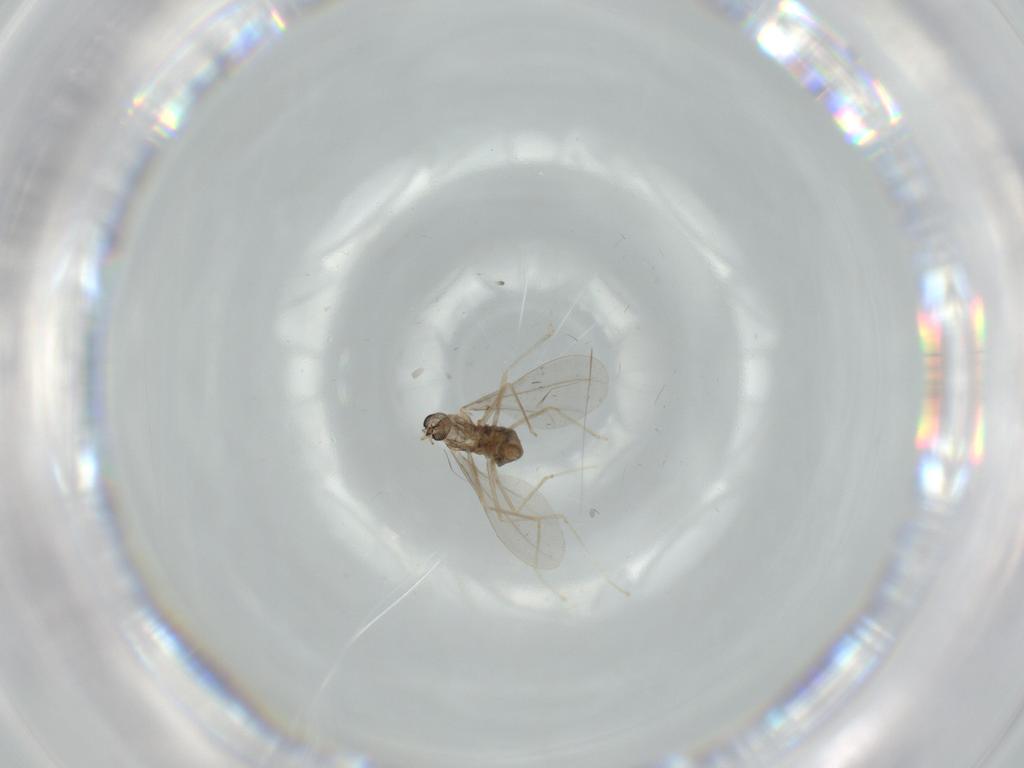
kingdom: Animalia
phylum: Arthropoda
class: Insecta
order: Diptera
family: Cecidomyiidae
